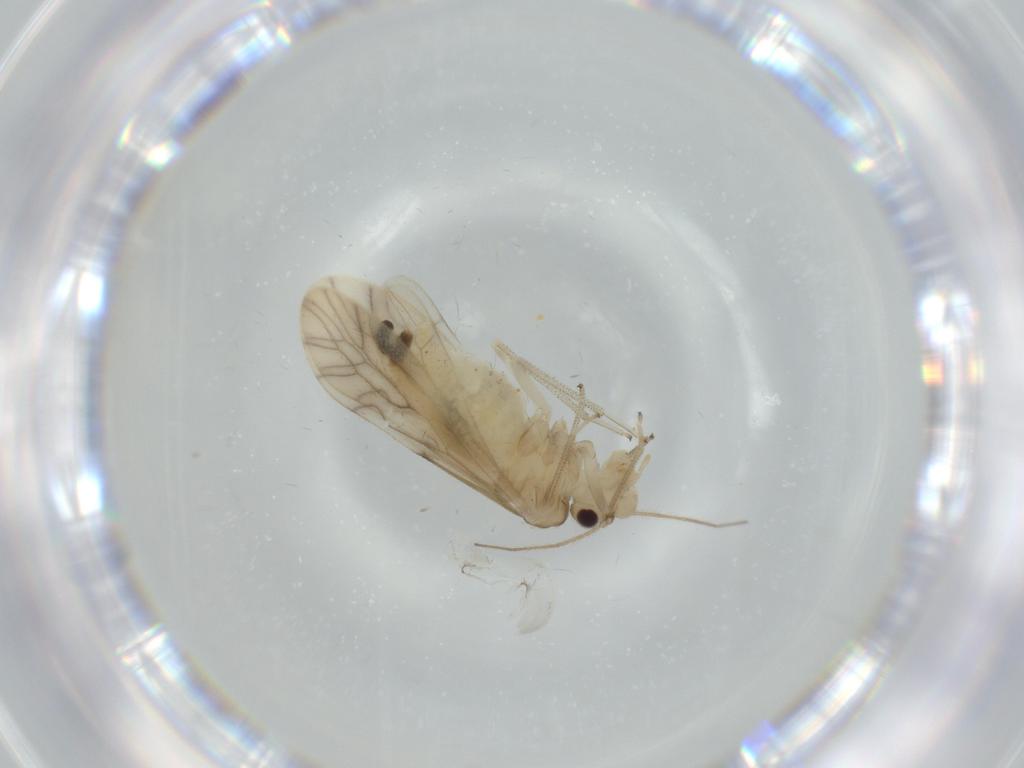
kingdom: Animalia
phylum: Arthropoda
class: Insecta
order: Psocodea
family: Caeciliusidae
